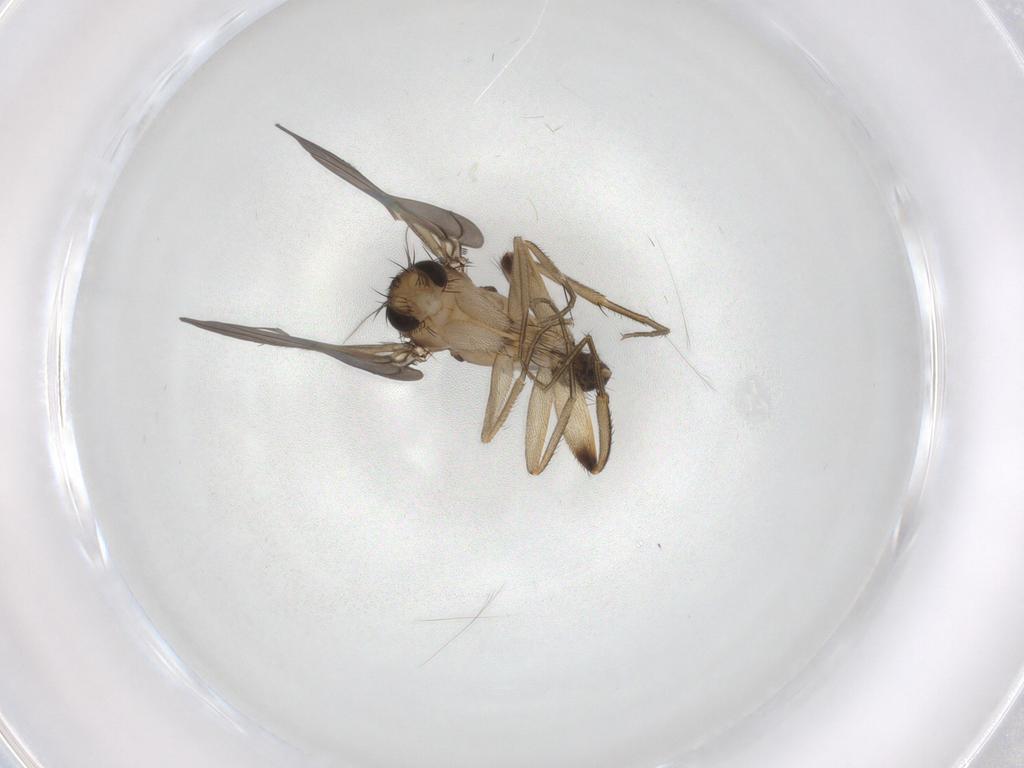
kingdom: Animalia
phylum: Arthropoda
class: Insecta
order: Diptera
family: Phoridae
